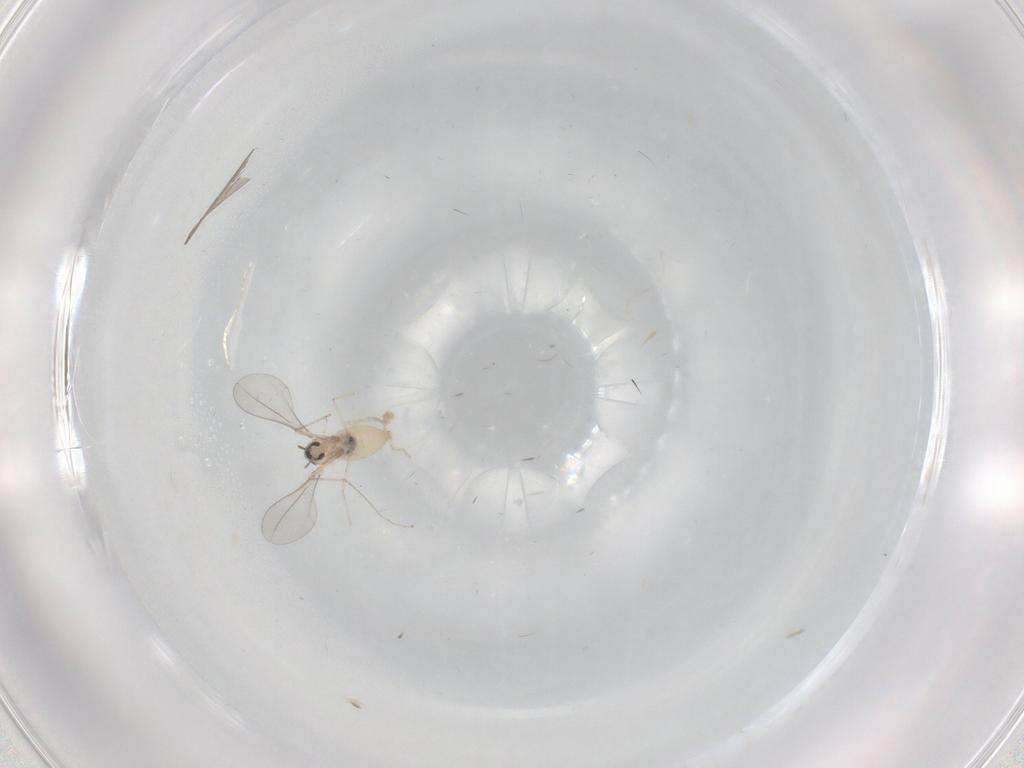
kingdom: Animalia
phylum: Arthropoda
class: Insecta
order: Diptera
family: Cecidomyiidae
